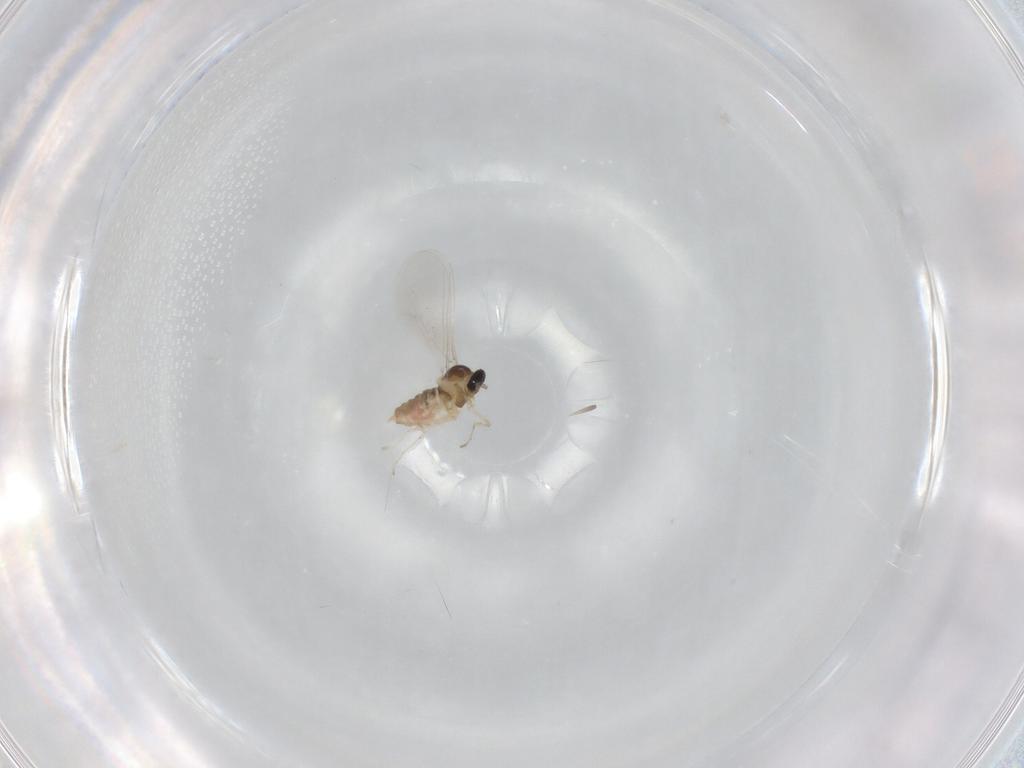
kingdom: Animalia
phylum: Arthropoda
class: Insecta
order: Diptera
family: Cecidomyiidae
